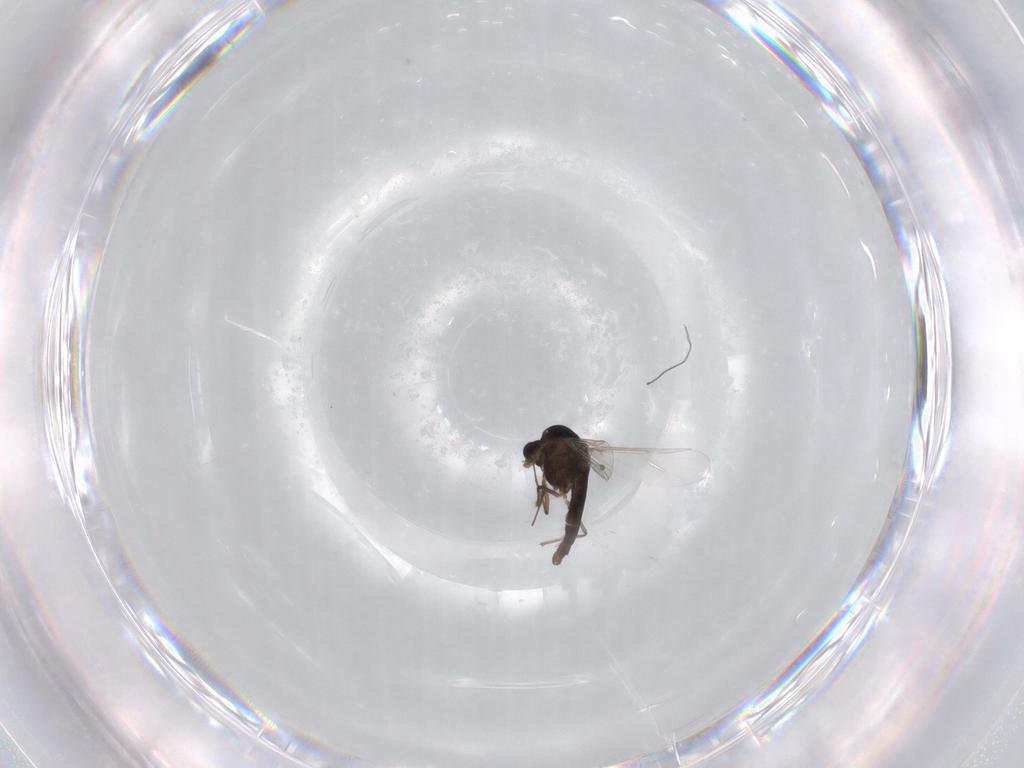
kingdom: Animalia
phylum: Arthropoda
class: Insecta
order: Diptera
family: Chironomidae
